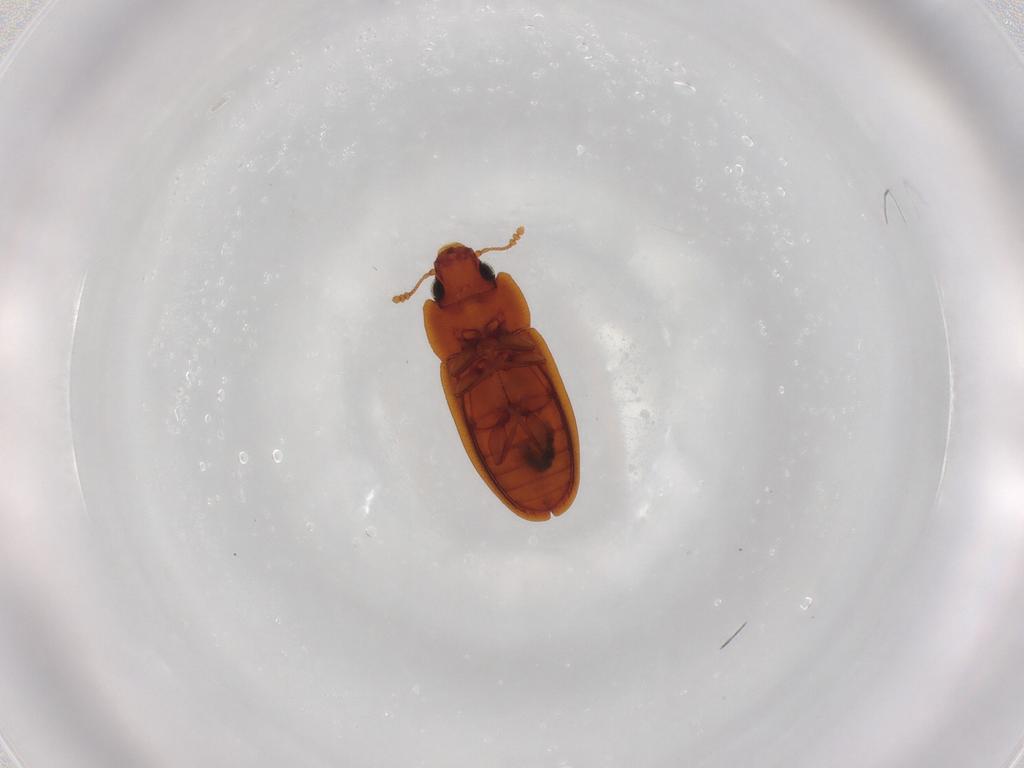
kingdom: Animalia
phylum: Arthropoda
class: Insecta
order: Coleoptera
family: Laemophloeidae
